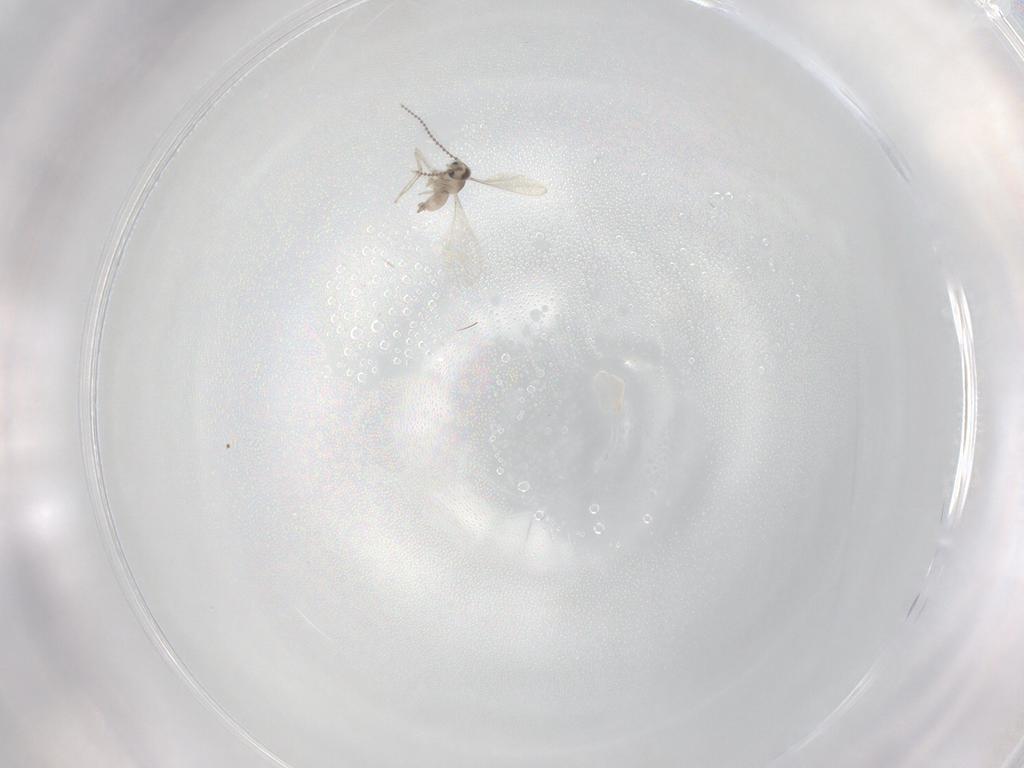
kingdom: Animalia
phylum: Arthropoda
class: Insecta
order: Diptera
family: Cecidomyiidae
